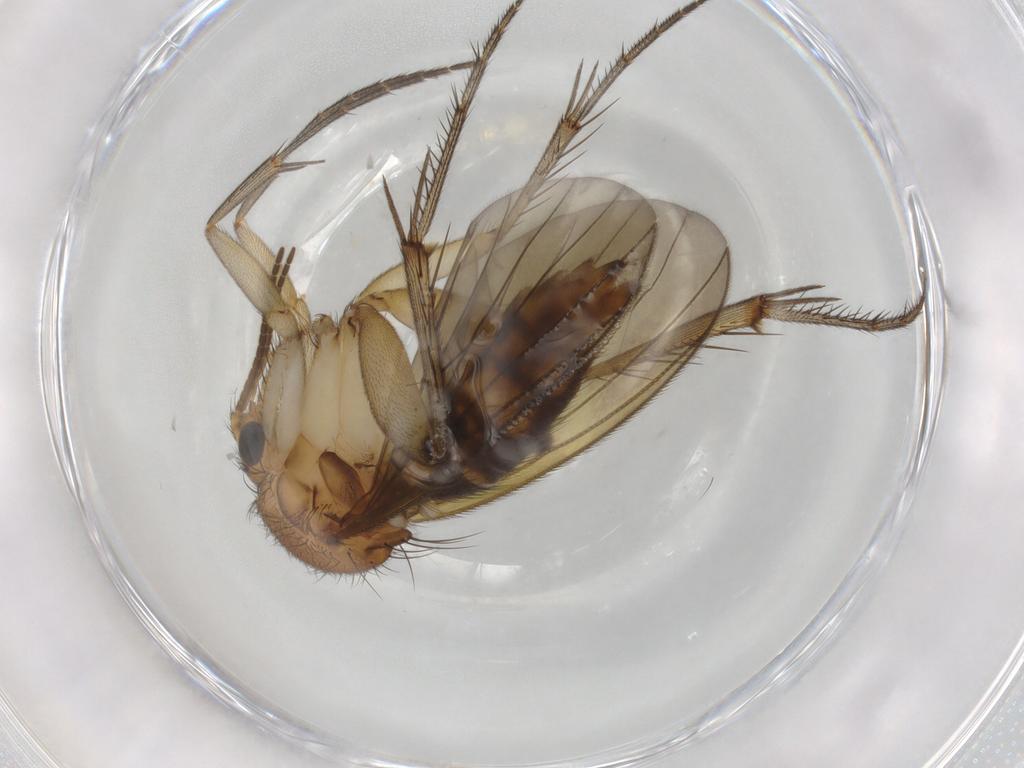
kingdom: Animalia
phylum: Arthropoda
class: Insecta
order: Diptera
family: Mycetophilidae
